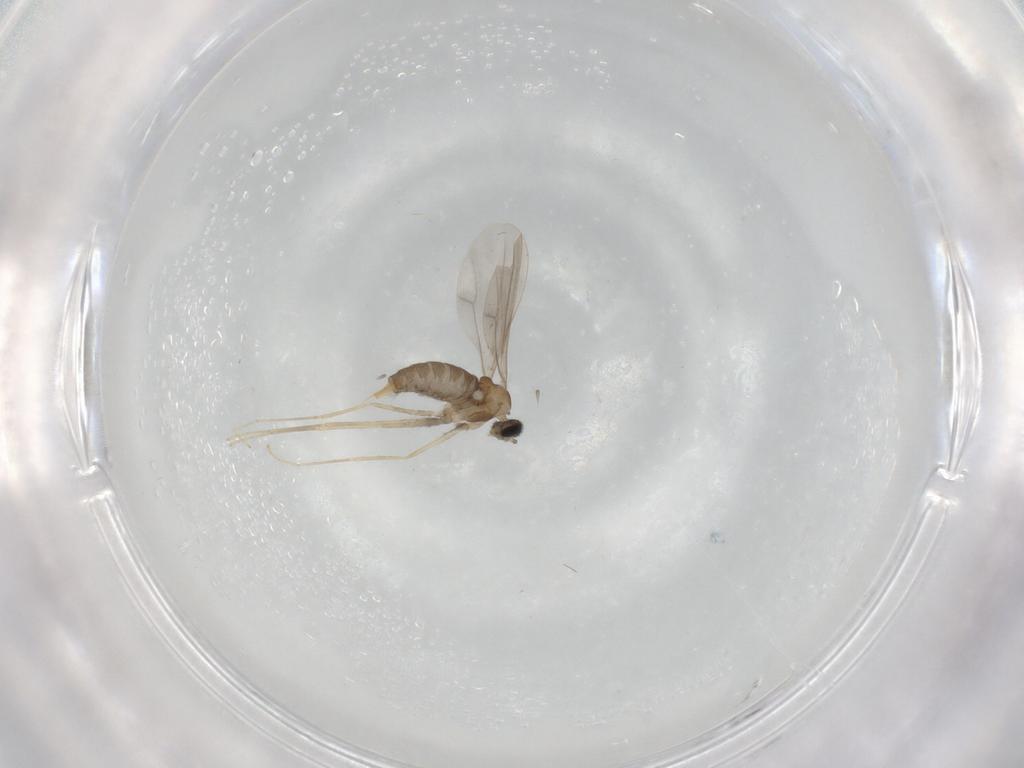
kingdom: Animalia
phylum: Arthropoda
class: Insecta
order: Diptera
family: Cecidomyiidae
